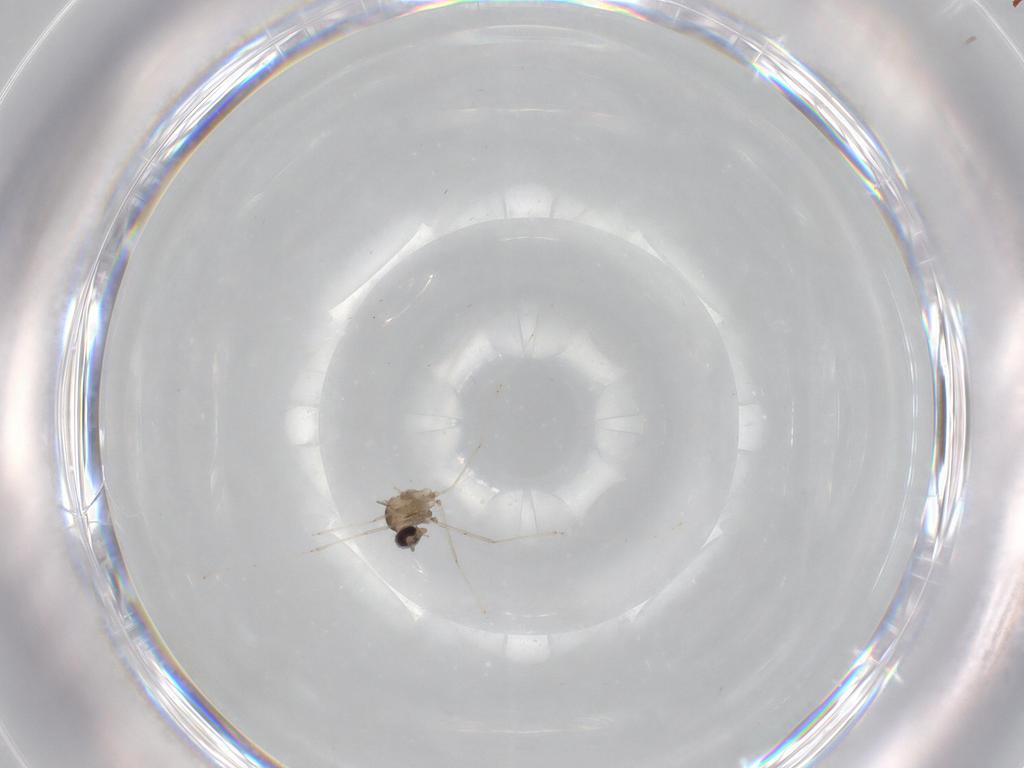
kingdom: Animalia
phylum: Arthropoda
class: Insecta
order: Diptera
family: Cecidomyiidae
